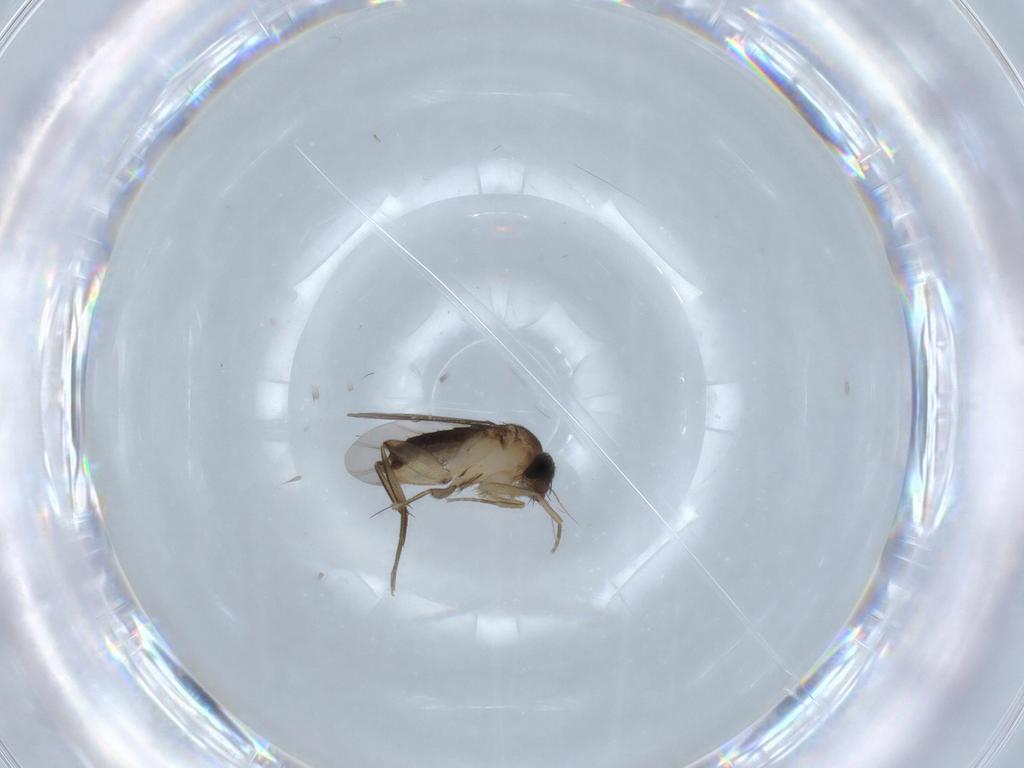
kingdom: Animalia
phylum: Arthropoda
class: Insecta
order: Diptera
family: Phoridae
